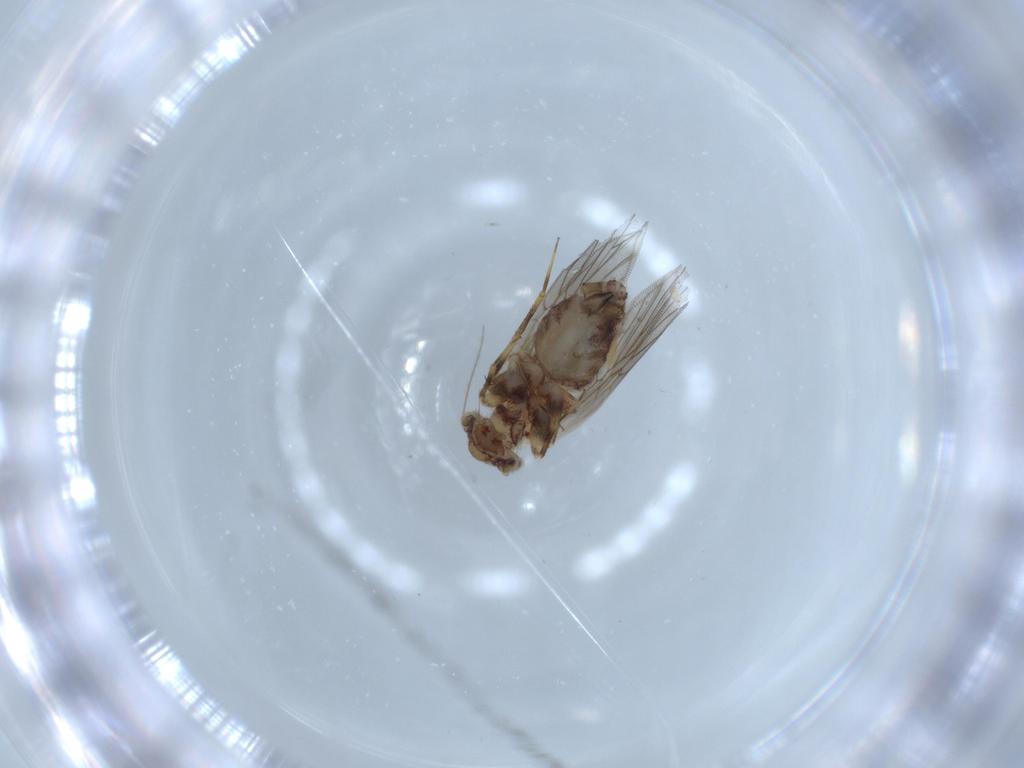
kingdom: Animalia
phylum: Arthropoda
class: Insecta
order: Psocodea
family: Lepidopsocidae
